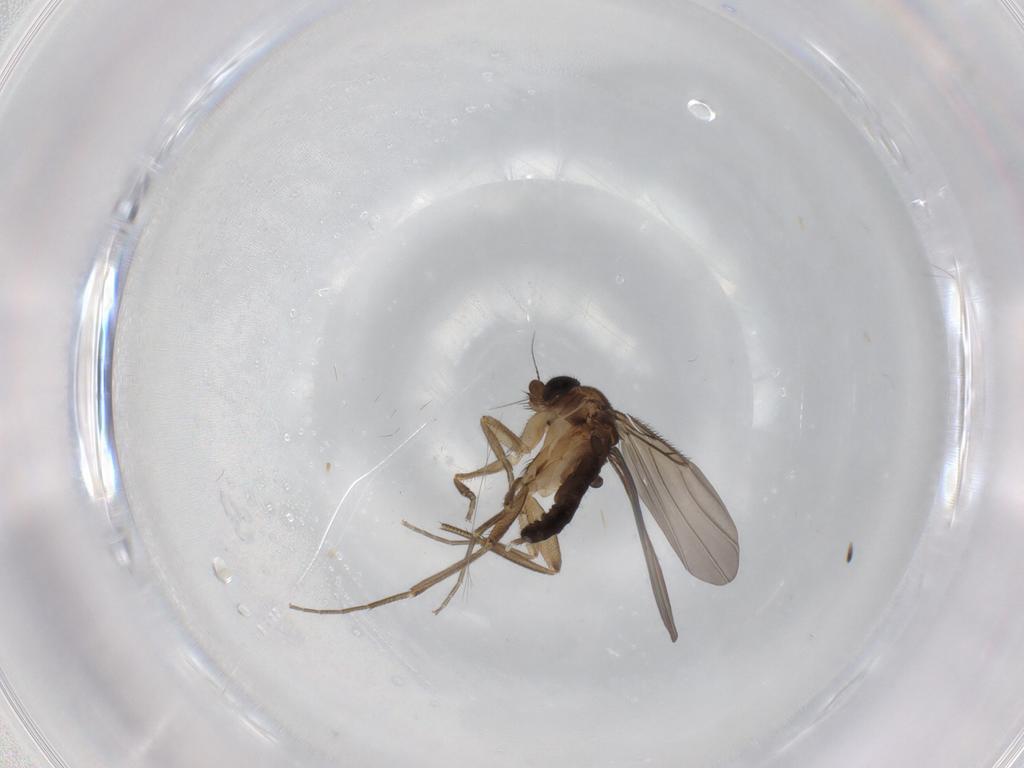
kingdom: Animalia
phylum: Arthropoda
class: Insecta
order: Diptera
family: Phoridae
